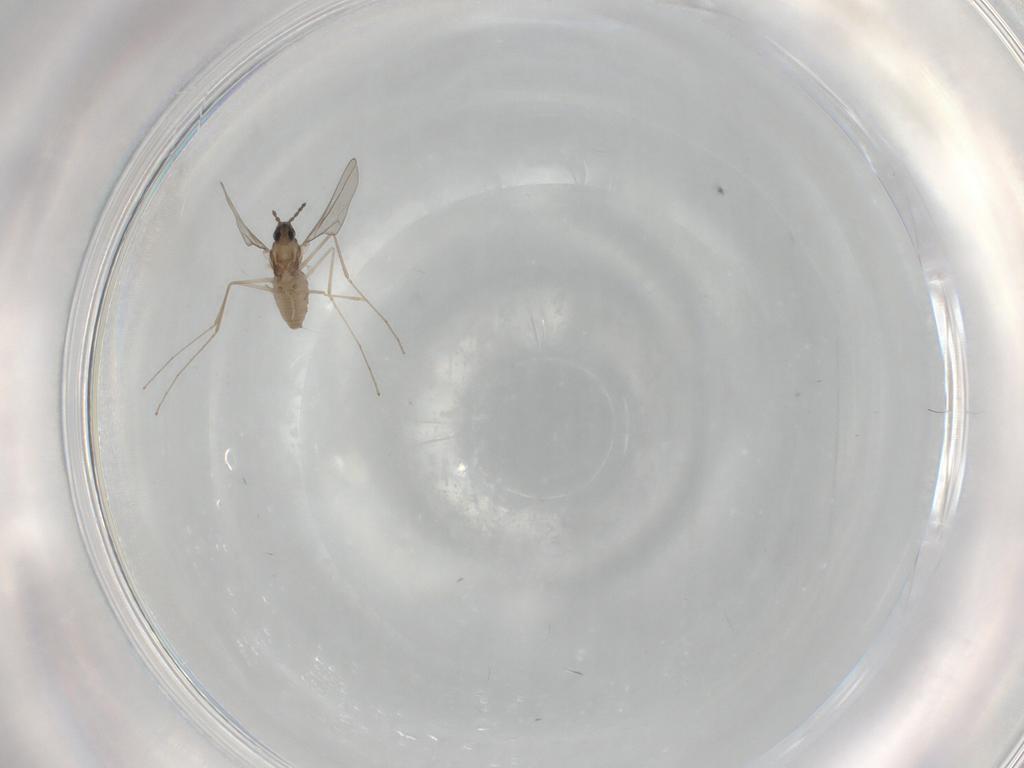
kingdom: Animalia
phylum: Arthropoda
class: Insecta
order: Diptera
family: Cecidomyiidae
